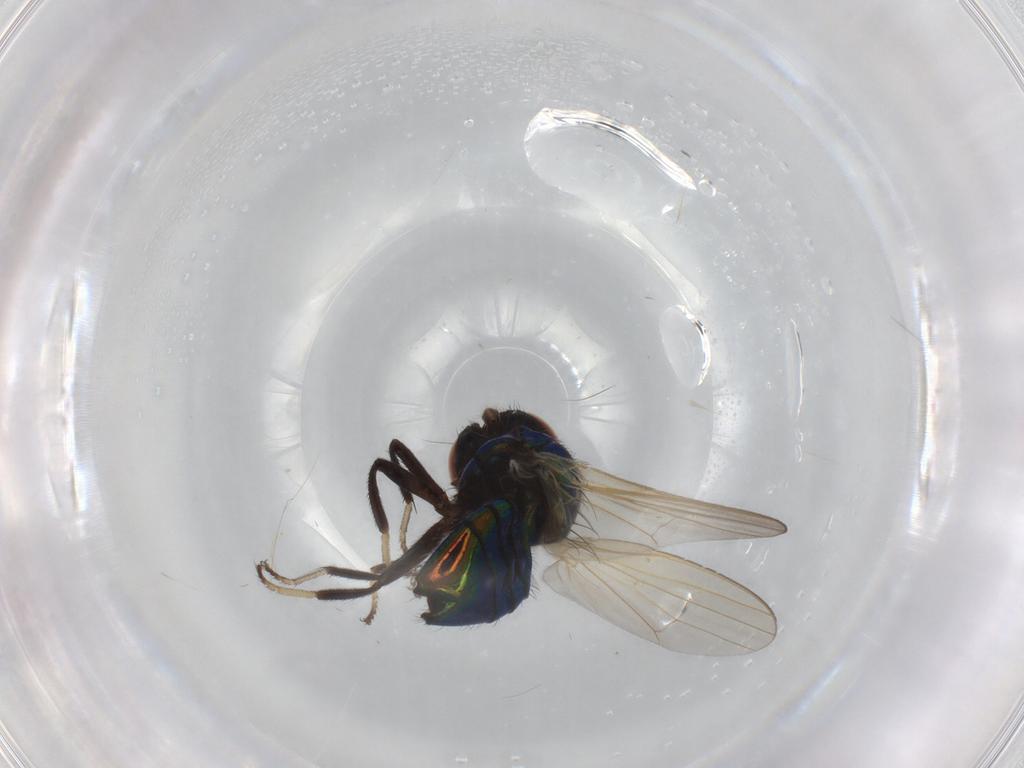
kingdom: Animalia
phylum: Arthropoda
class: Insecta
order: Diptera
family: Lonchaeidae
